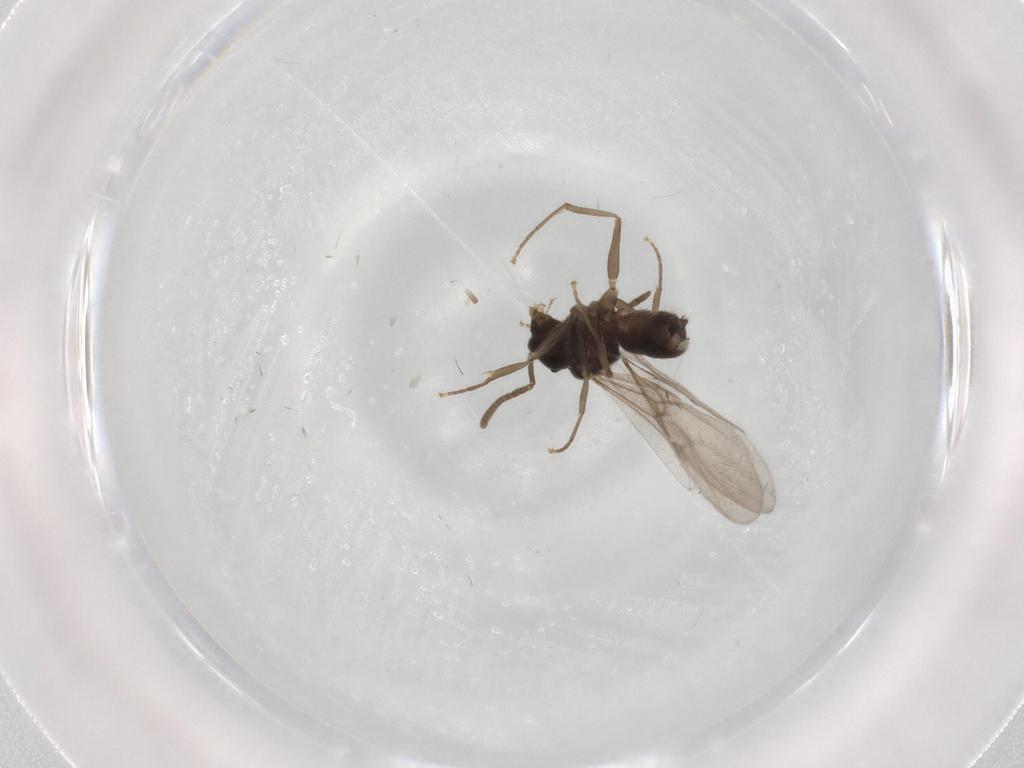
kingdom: Animalia
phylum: Arthropoda
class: Insecta
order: Hymenoptera
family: Formicidae
